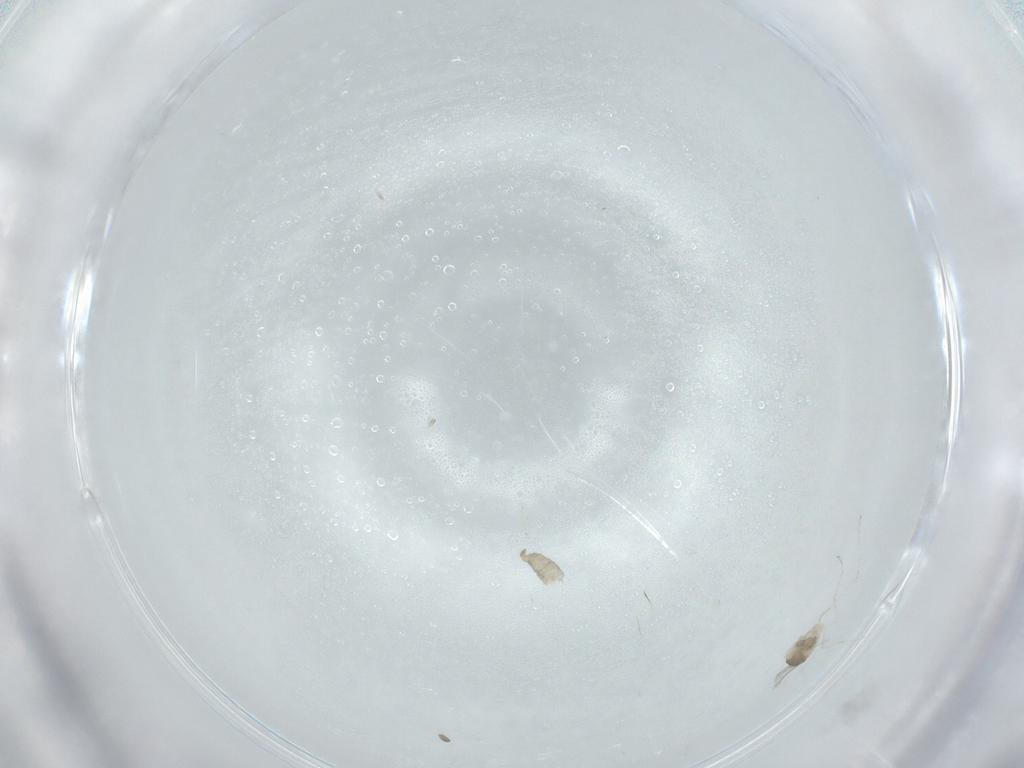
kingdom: Animalia
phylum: Arthropoda
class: Insecta
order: Diptera
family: Cecidomyiidae
